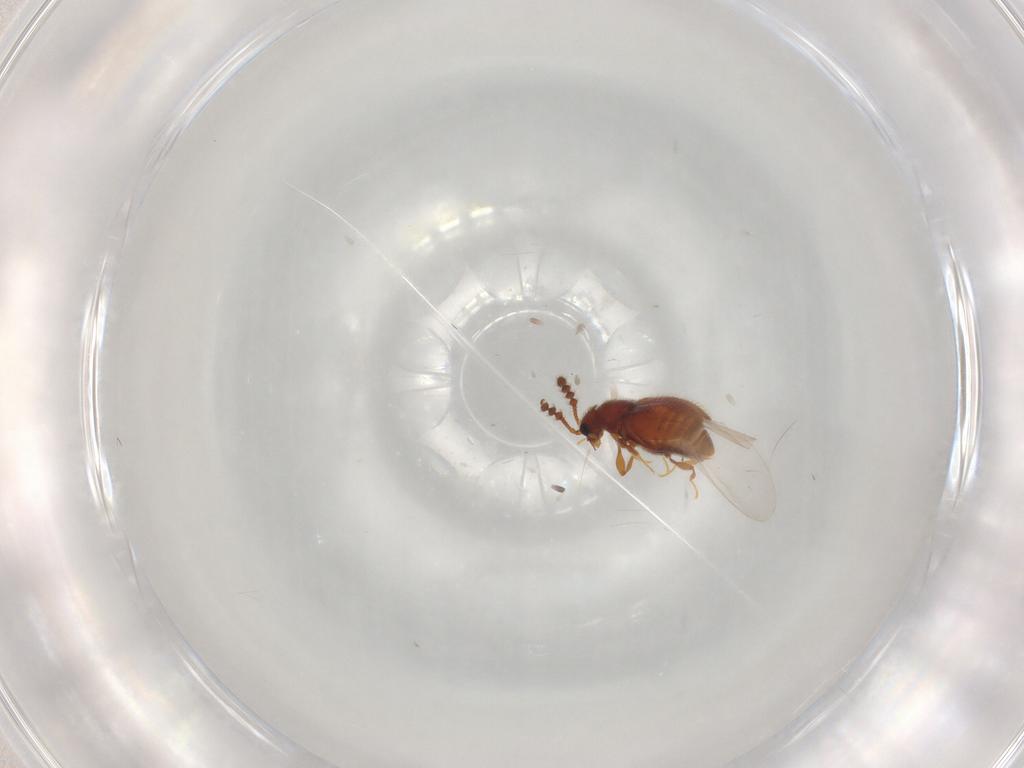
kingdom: Animalia
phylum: Arthropoda
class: Insecta
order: Coleoptera
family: Staphylinidae
